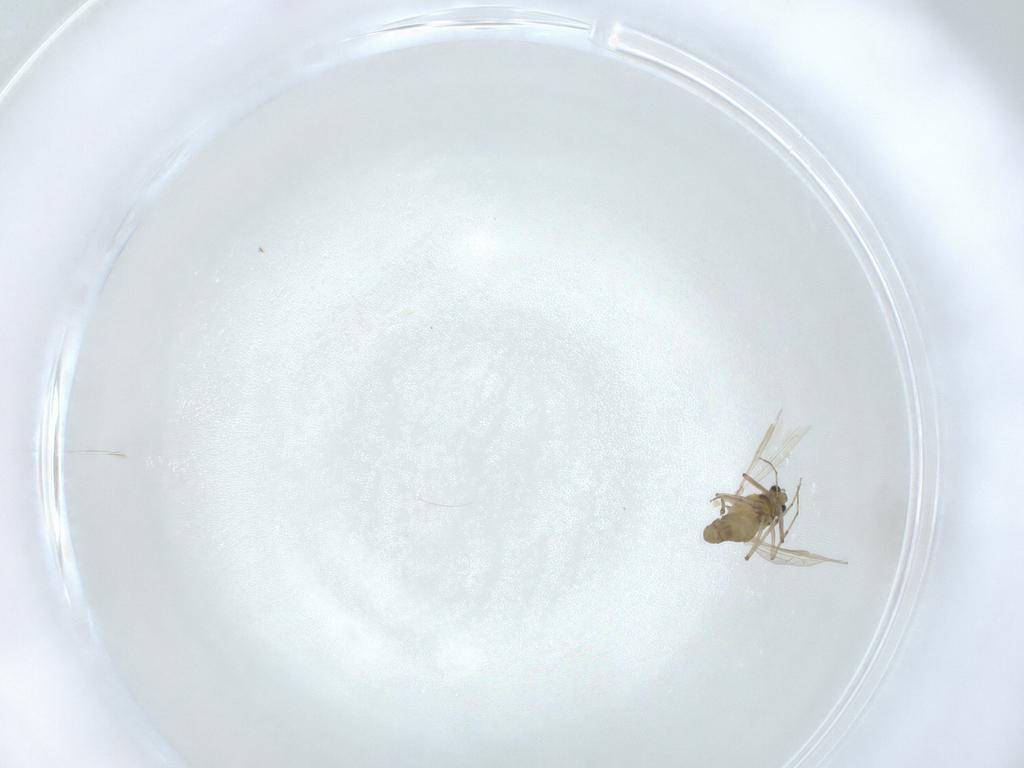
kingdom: Animalia
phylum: Arthropoda
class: Insecta
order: Diptera
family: Chironomidae
